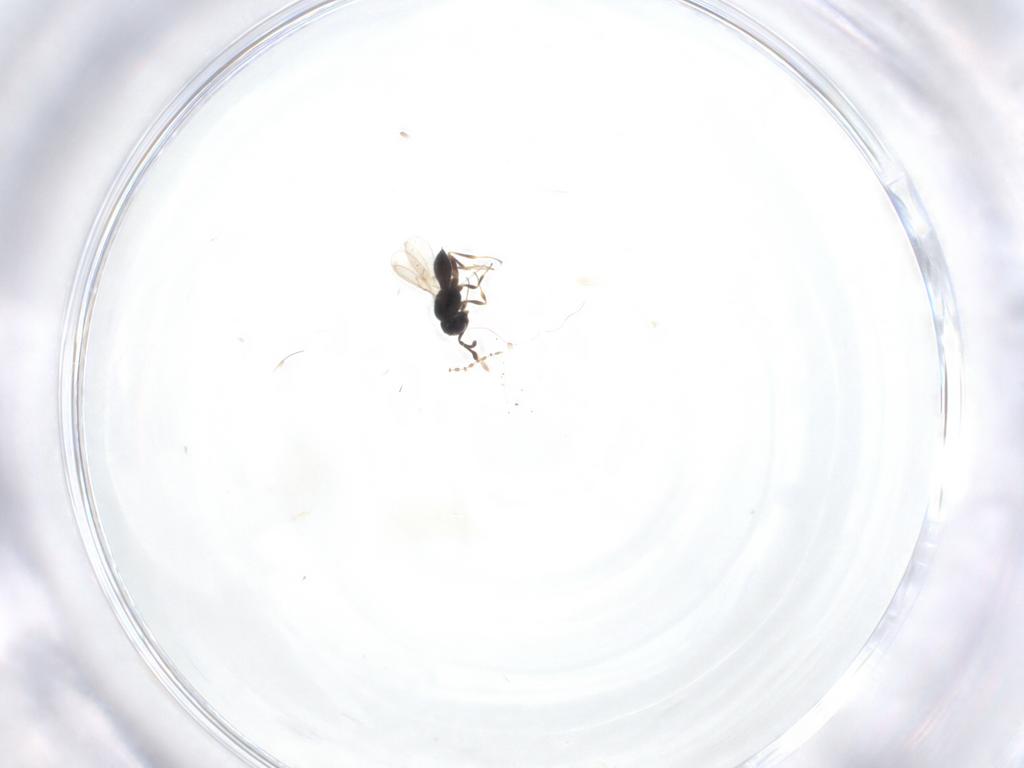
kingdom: Animalia
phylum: Arthropoda
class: Insecta
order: Hymenoptera
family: Scelionidae
